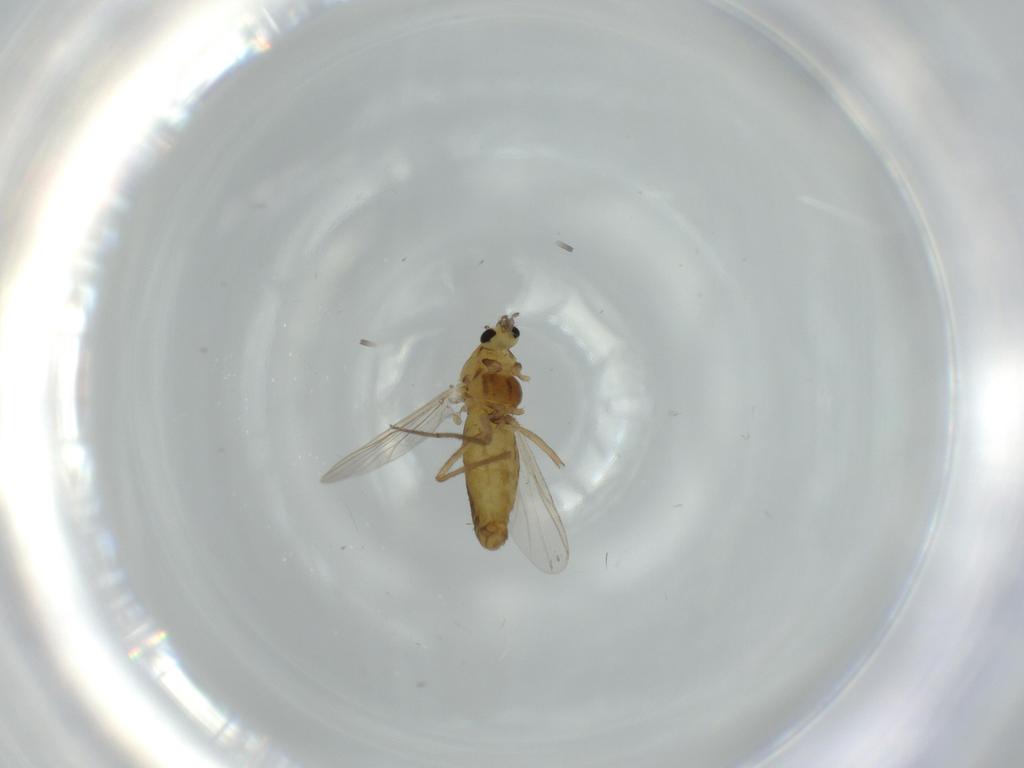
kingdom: Animalia
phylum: Arthropoda
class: Insecta
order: Diptera
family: Chironomidae
